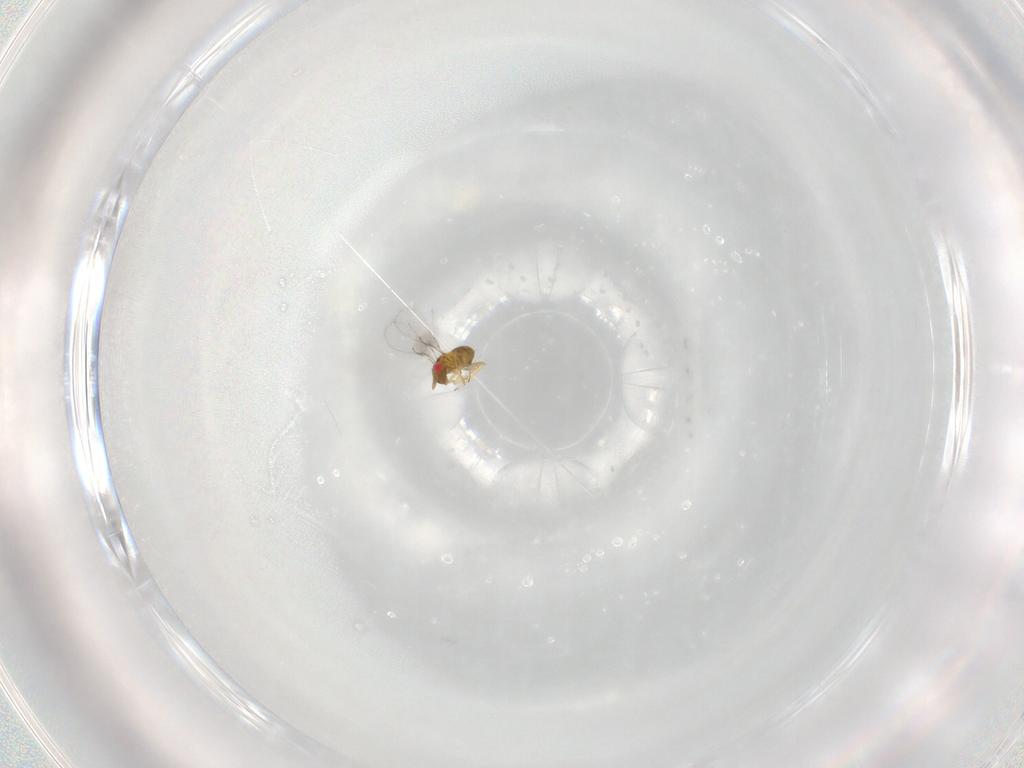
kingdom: Animalia
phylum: Arthropoda
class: Insecta
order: Hymenoptera
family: Trichogrammatidae
